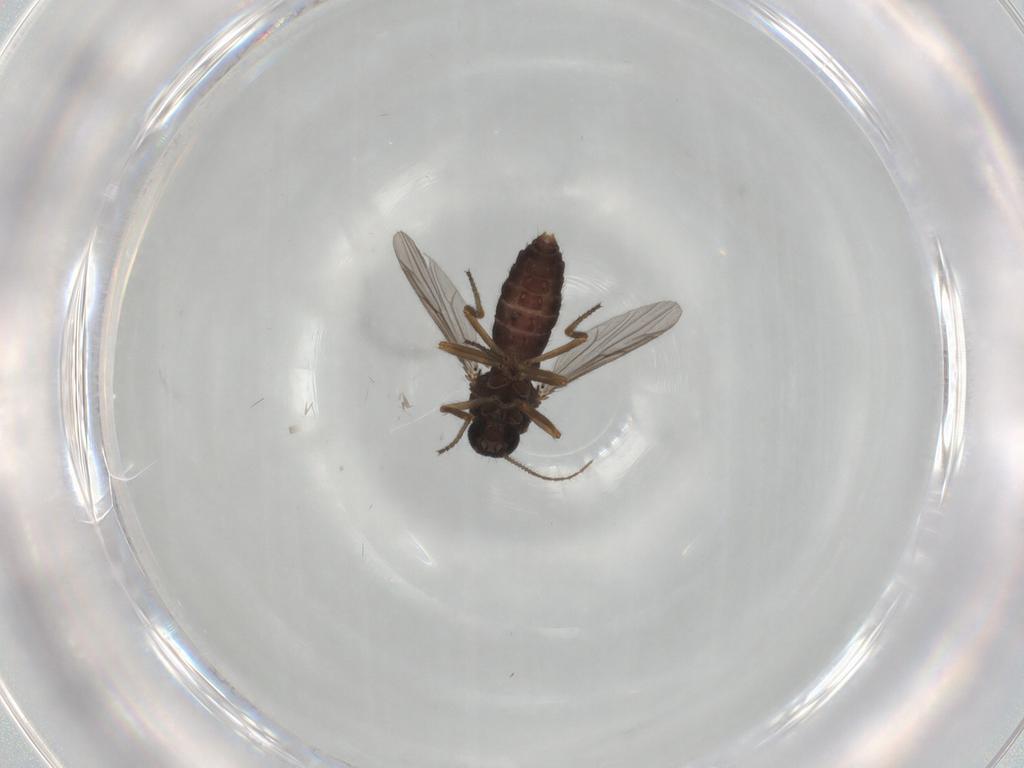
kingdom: Animalia
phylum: Arthropoda
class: Insecta
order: Diptera
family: Ceratopogonidae
